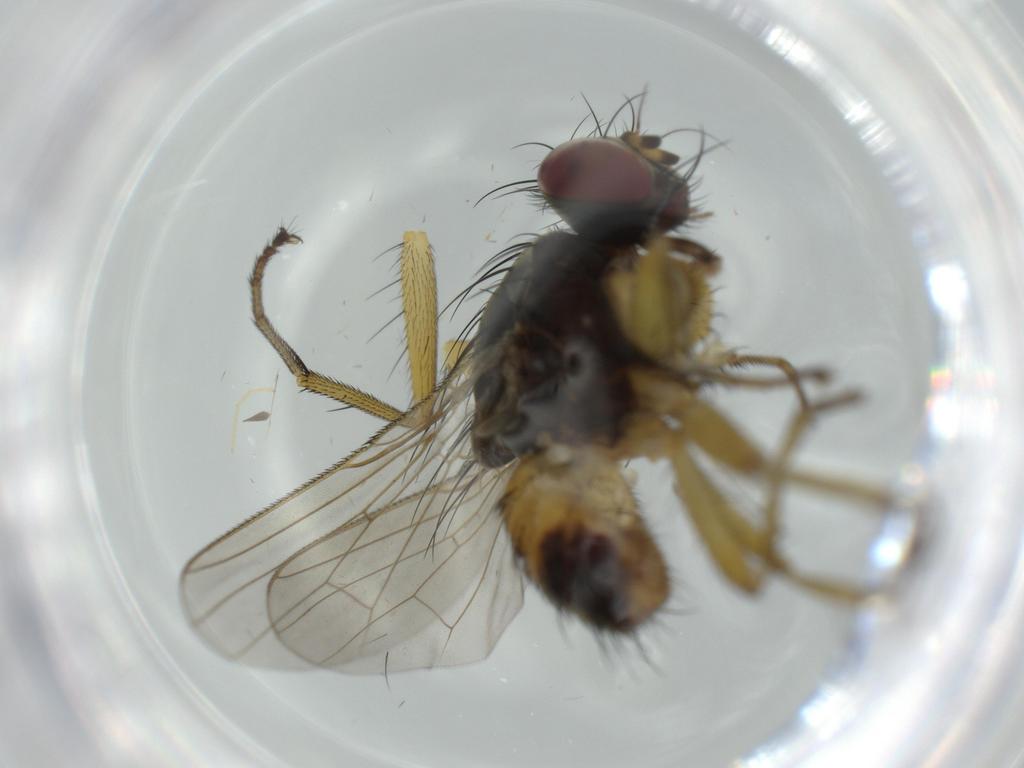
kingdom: Animalia
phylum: Arthropoda
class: Insecta
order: Diptera
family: Muscidae
